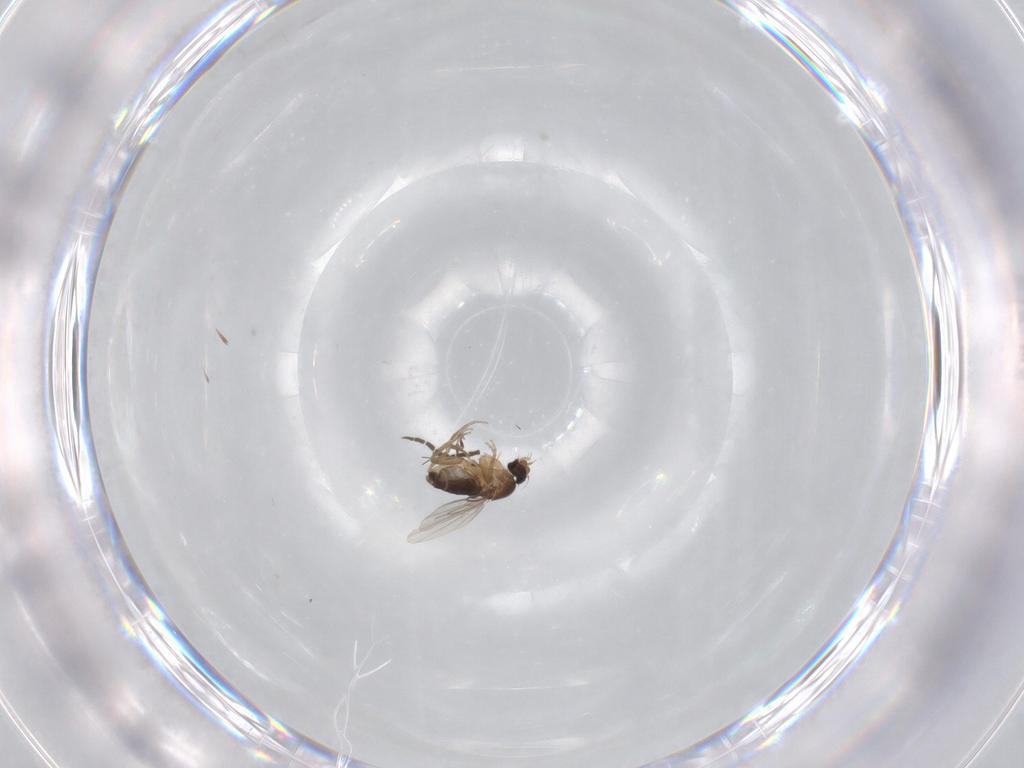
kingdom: Animalia
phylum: Arthropoda
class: Insecta
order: Diptera
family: Sciaridae
